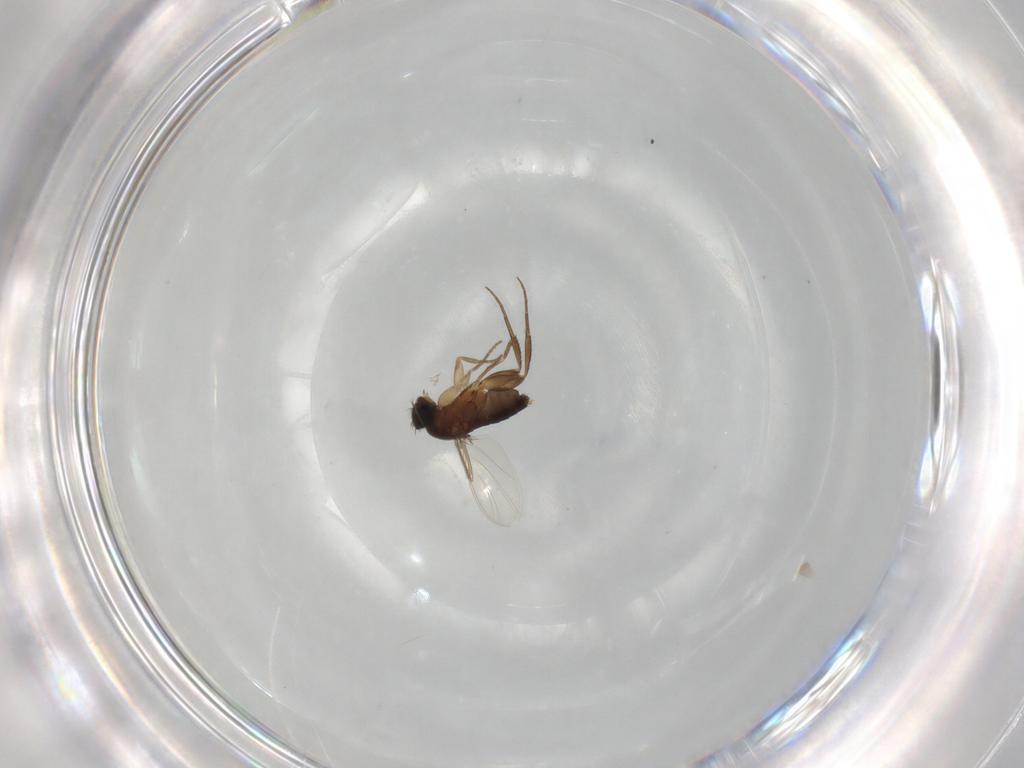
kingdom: Animalia
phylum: Arthropoda
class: Insecta
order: Diptera
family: Phoridae
